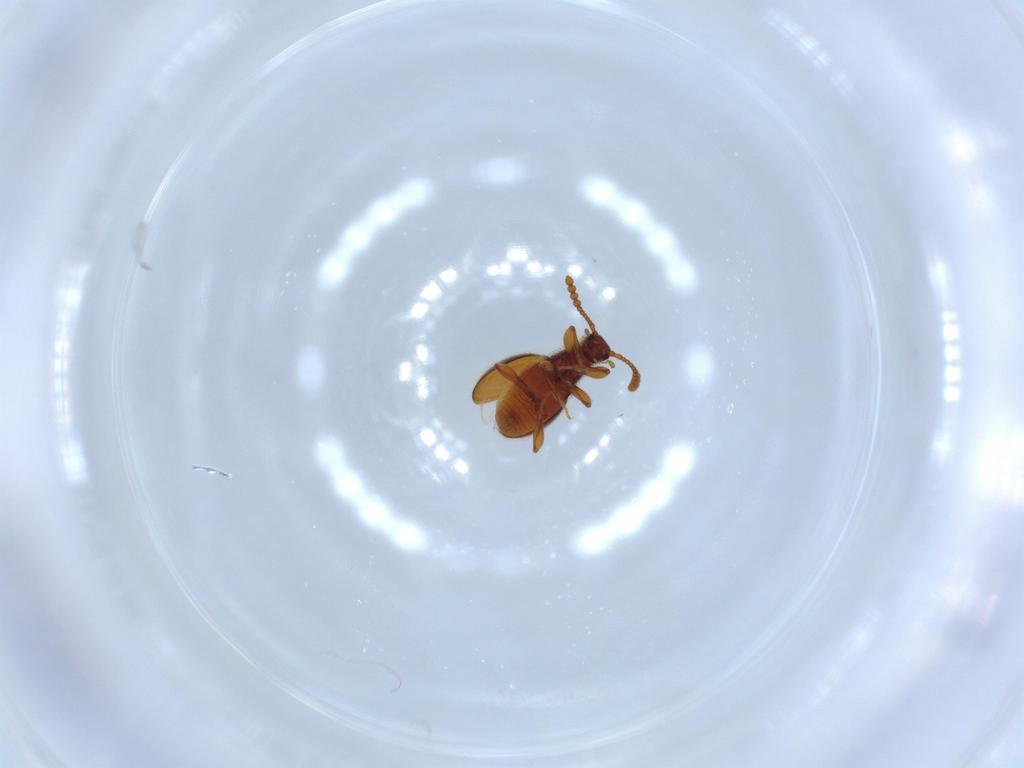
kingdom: Animalia
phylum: Arthropoda
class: Insecta
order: Coleoptera
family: Staphylinidae
